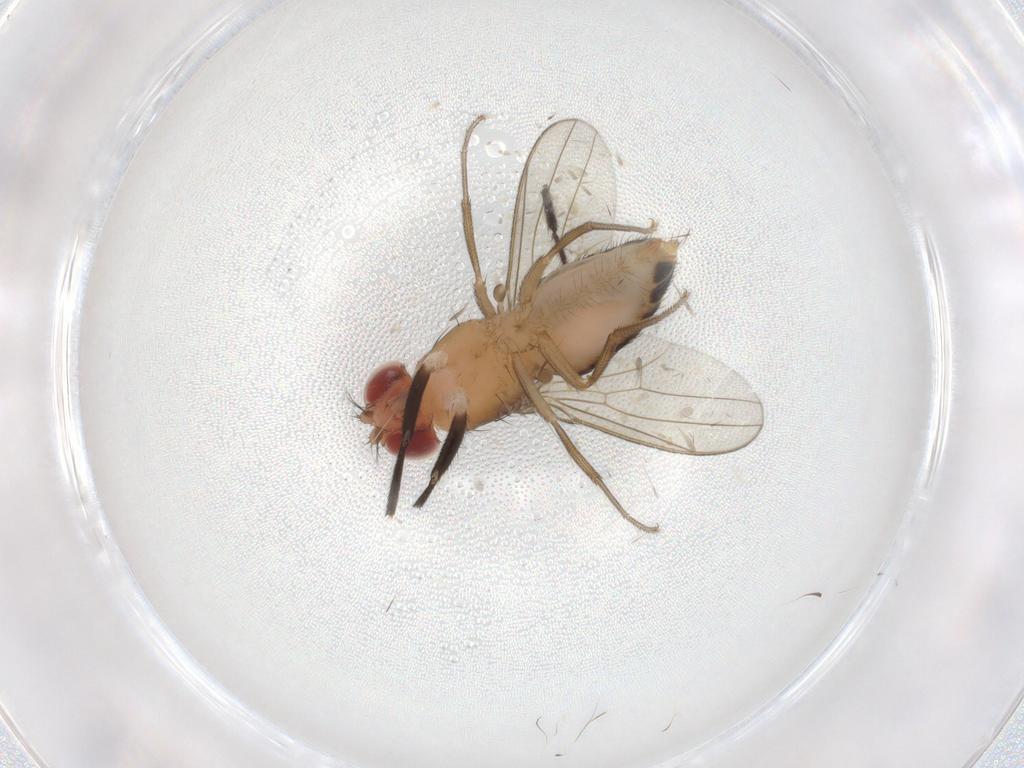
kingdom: Animalia
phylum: Arthropoda
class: Insecta
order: Diptera
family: Drosophilidae
